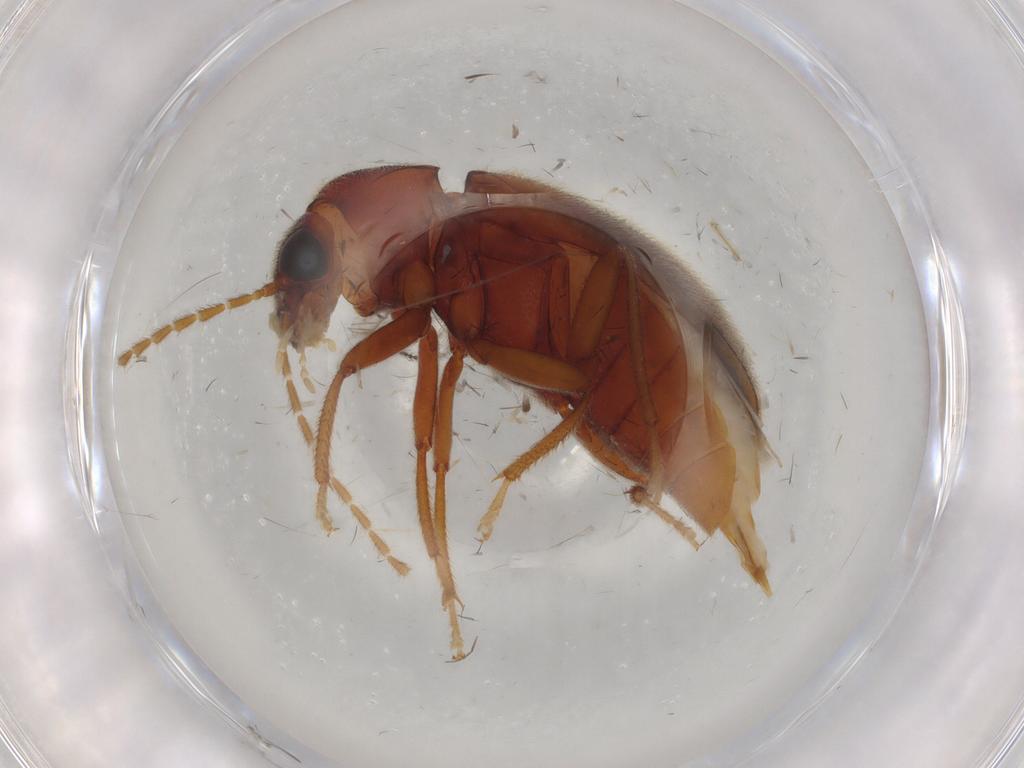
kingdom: Animalia
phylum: Arthropoda
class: Insecta
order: Coleoptera
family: Ptilodactylidae
